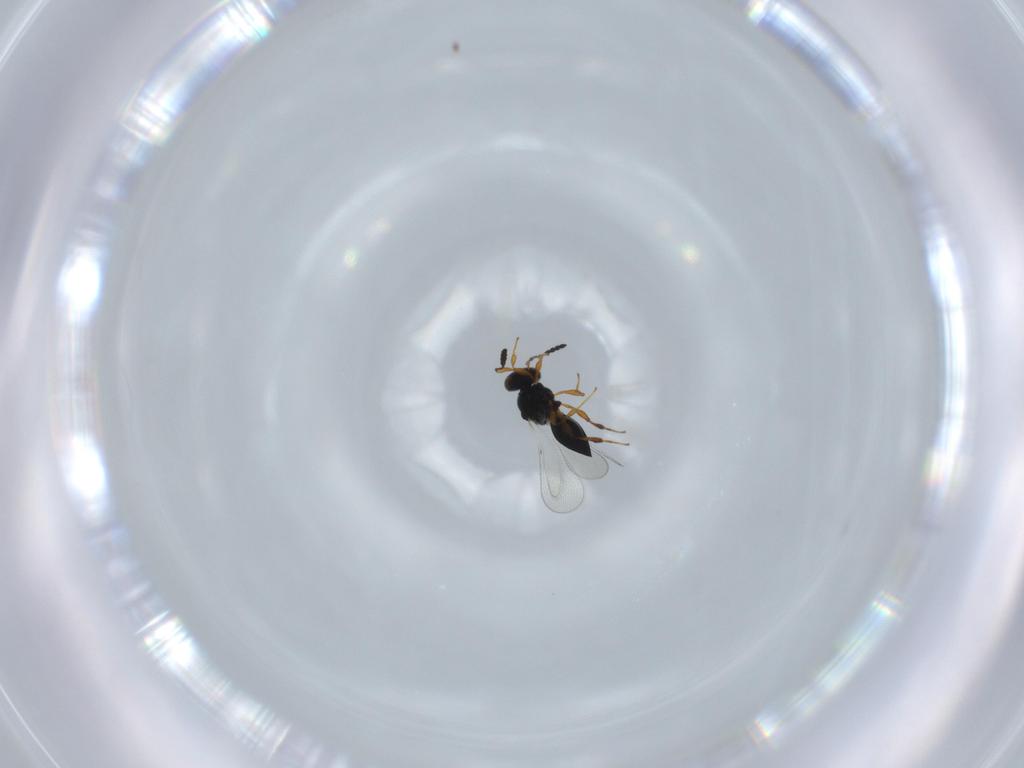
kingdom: Animalia
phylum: Arthropoda
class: Insecta
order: Hymenoptera
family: Platygastridae
